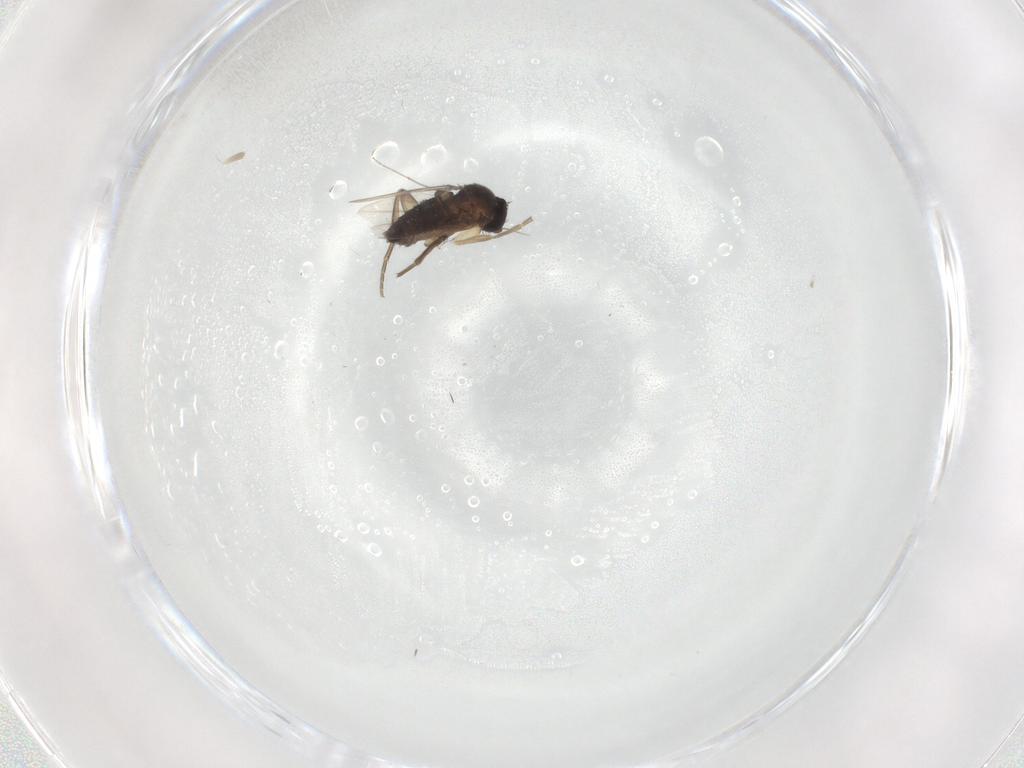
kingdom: Animalia
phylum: Arthropoda
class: Insecta
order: Diptera
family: Chironomidae
